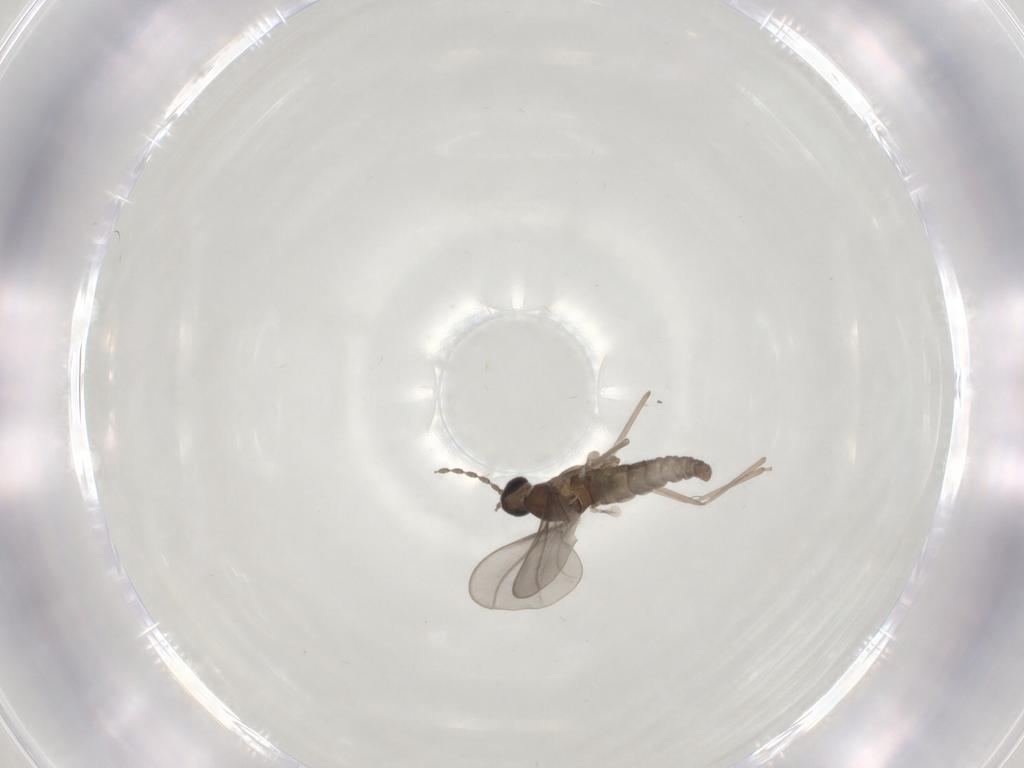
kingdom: Animalia
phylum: Arthropoda
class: Insecta
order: Diptera
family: Cecidomyiidae
